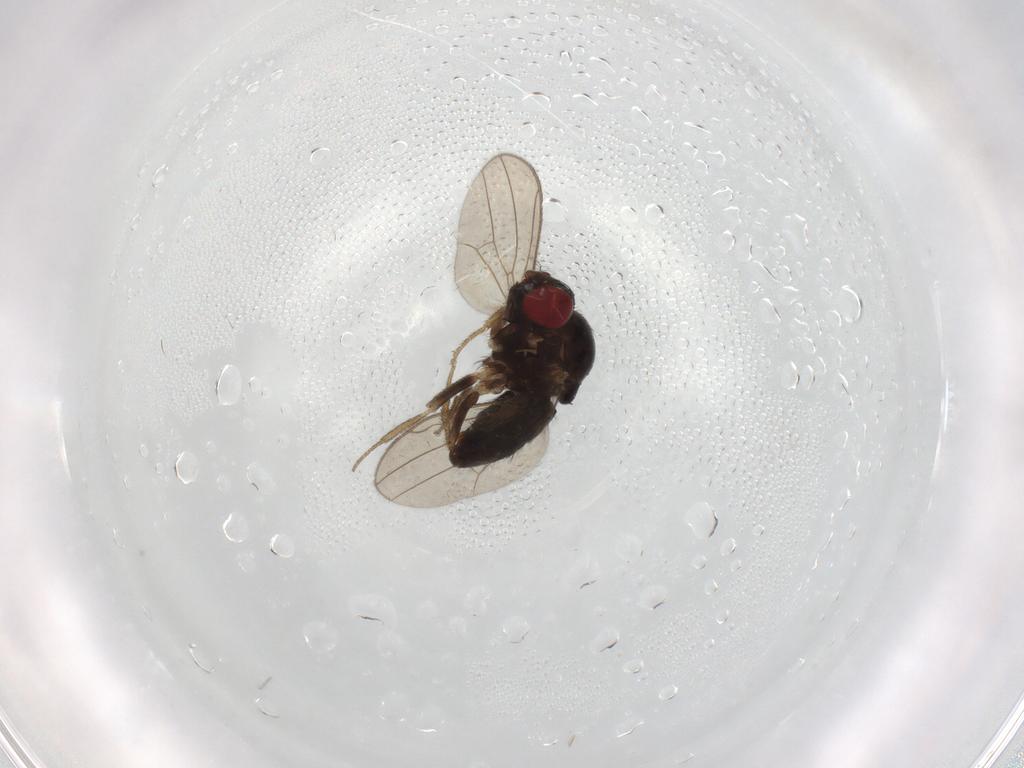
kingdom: Animalia
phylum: Arthropoda
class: Insecta
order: Diptera
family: Drosophilidae
